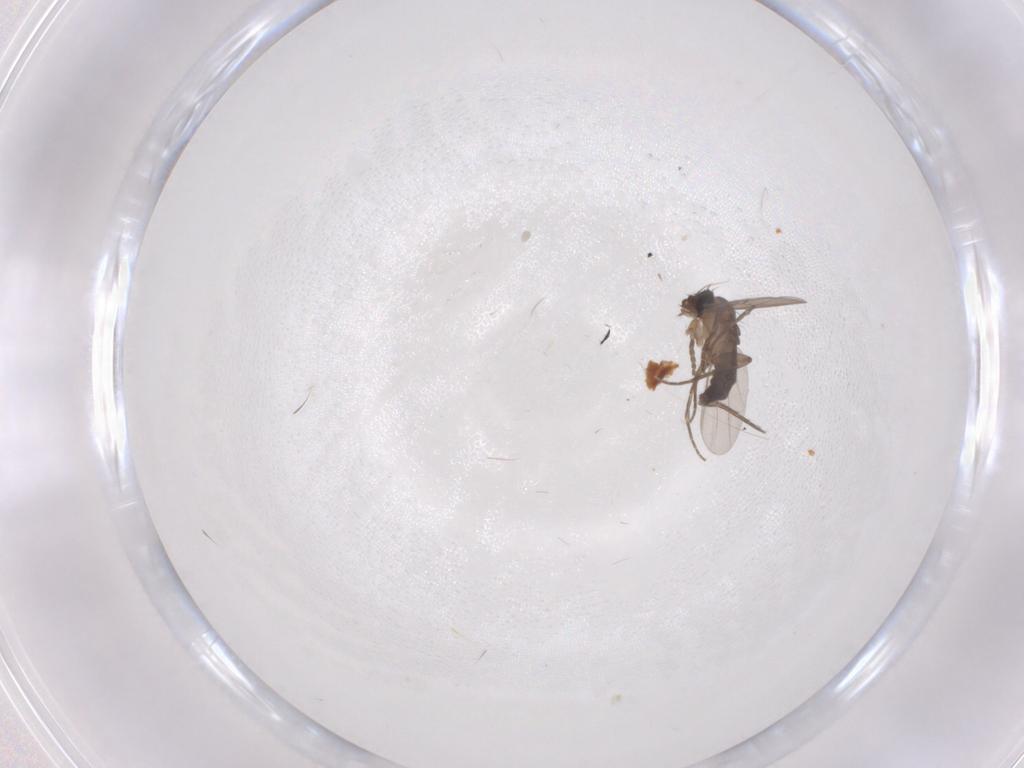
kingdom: Animalia
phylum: Arthropoda
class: Insecta
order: Diptera
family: Phoridae
